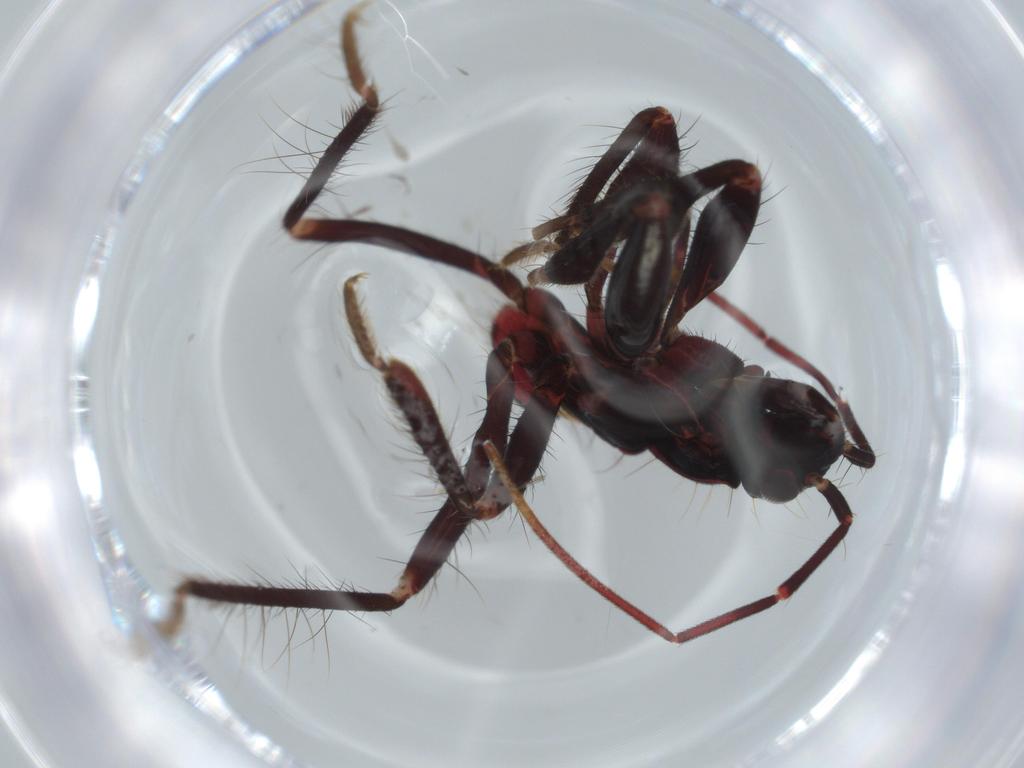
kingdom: Animalia
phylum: Arthropoda
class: Insecta
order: Hemiptera
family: Reduviidae
